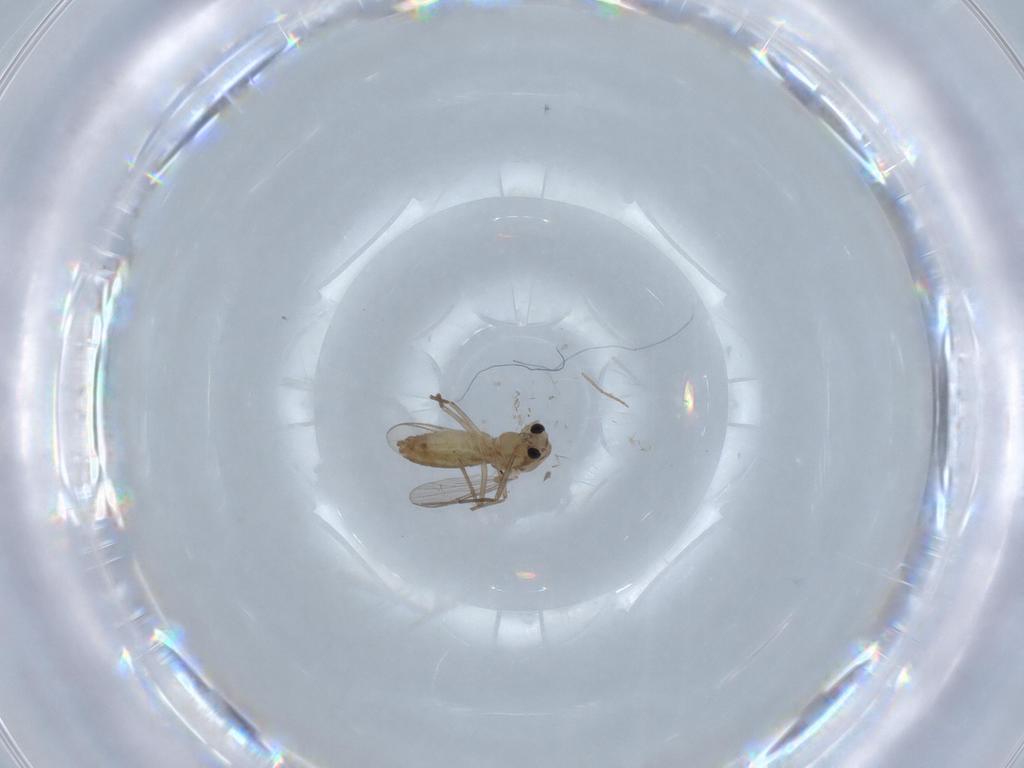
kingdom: Animalia
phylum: Arthropoda
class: Insecta
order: Diptera
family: Chironomidae
